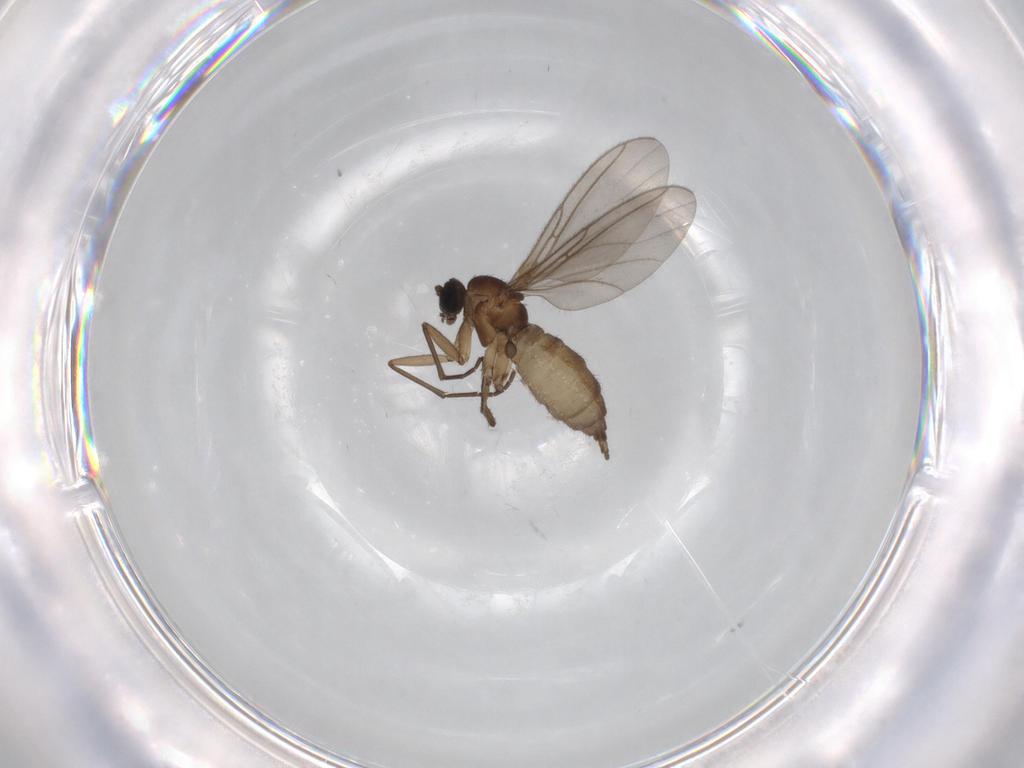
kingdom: Animalia
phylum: Arthropoda
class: Insecta
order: Diptera
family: Sciaridae
